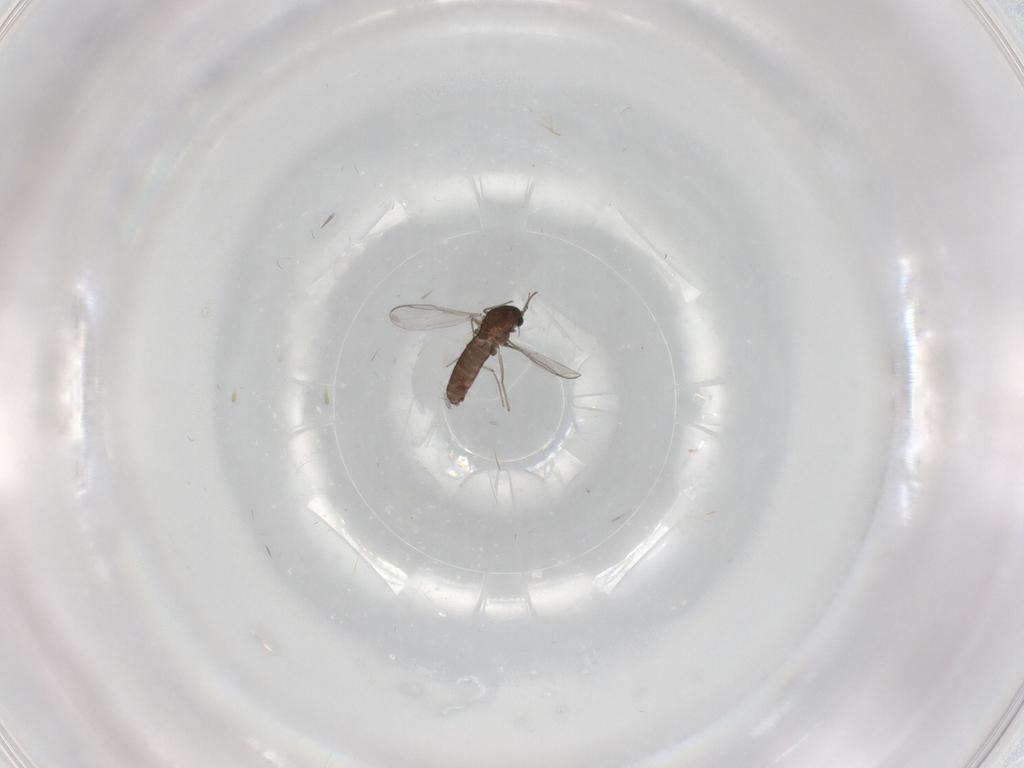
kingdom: Animalia
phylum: Arthropoda
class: Insecta
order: Diptera
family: Chironomidae
